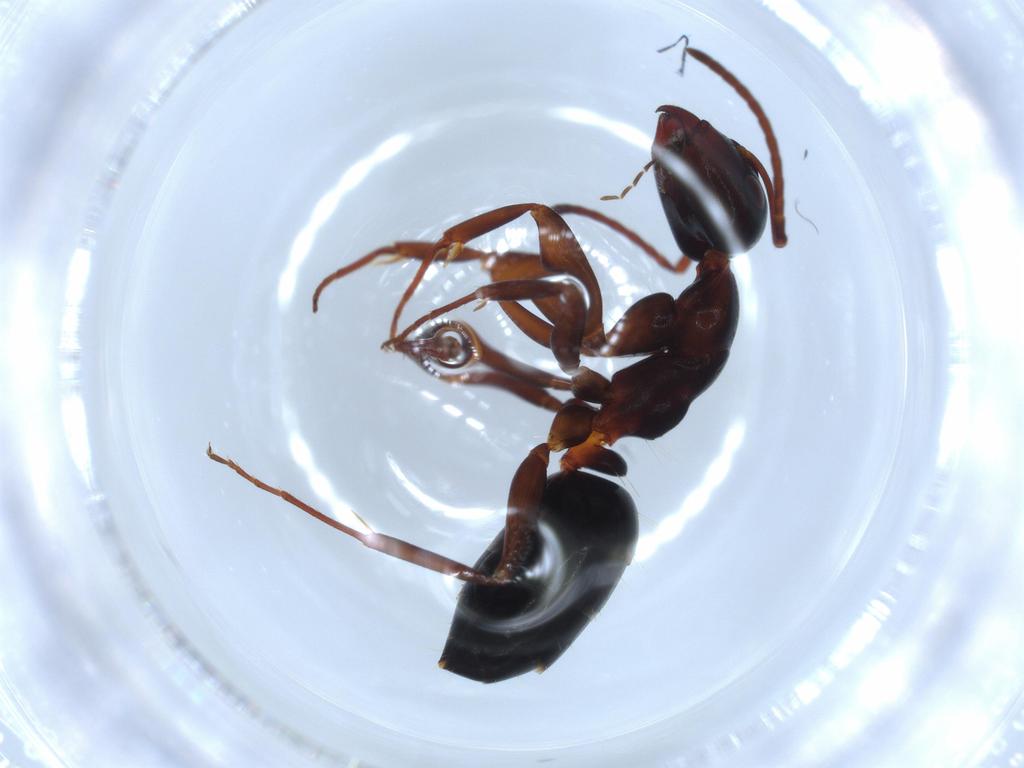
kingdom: Animalia
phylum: Arthropoda
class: Insecta
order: Hymenoptera
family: Formicidae
